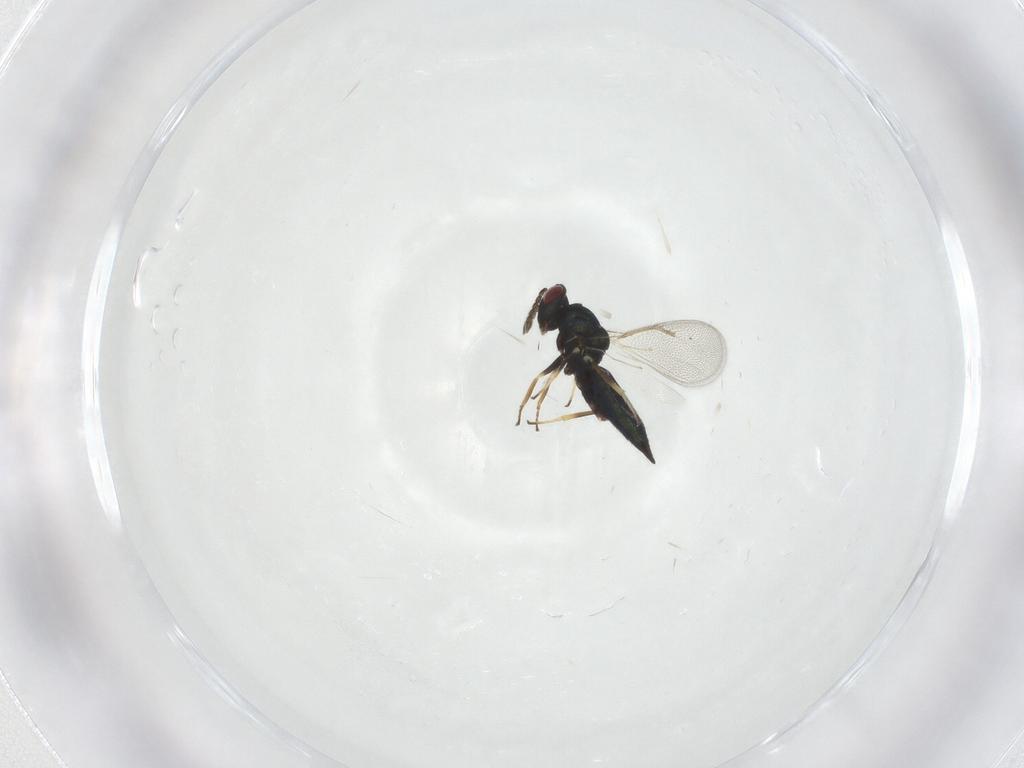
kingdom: Animalia
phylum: Arthropoda
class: Insecta
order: Hymenoptera
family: Eulophidae
